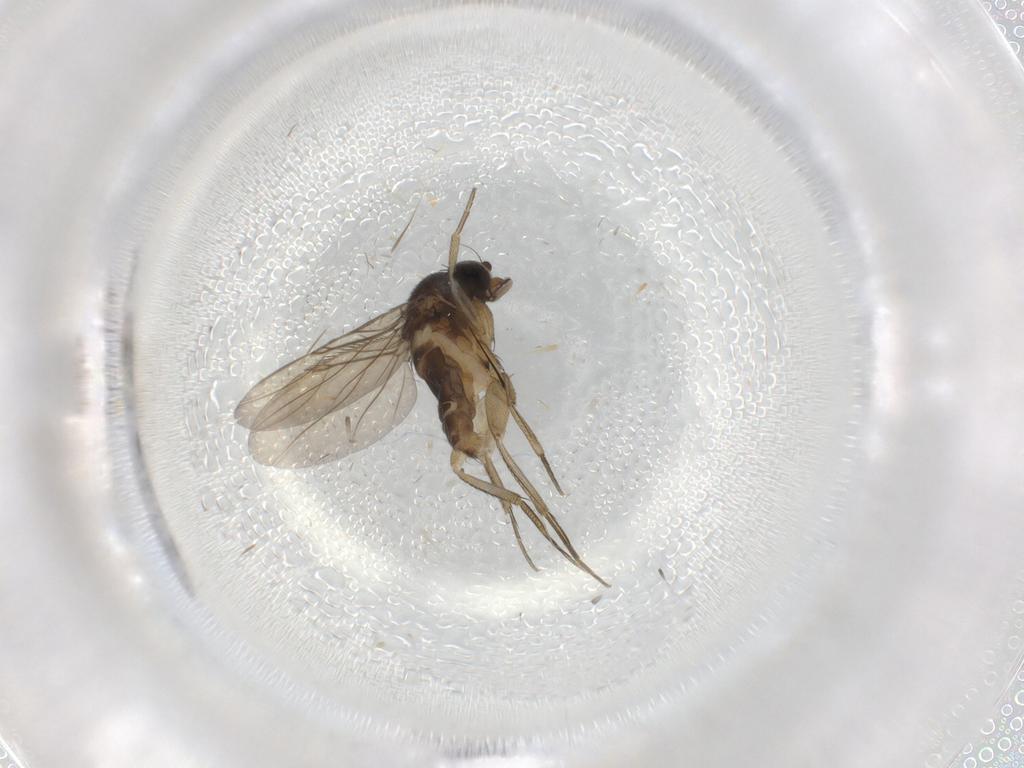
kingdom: Animalia
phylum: Arthropoda
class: Insecta
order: Diptera
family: Phoridae
